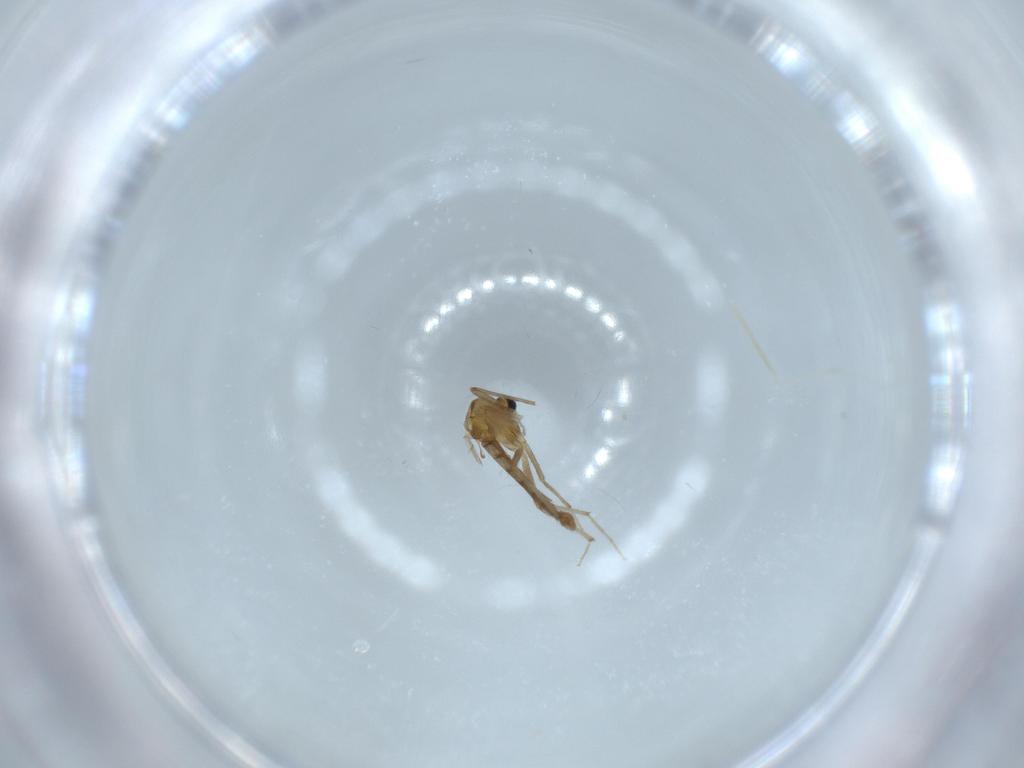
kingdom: Animalia
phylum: Arthropoda
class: Insecta
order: Diptera
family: Chironomidae
